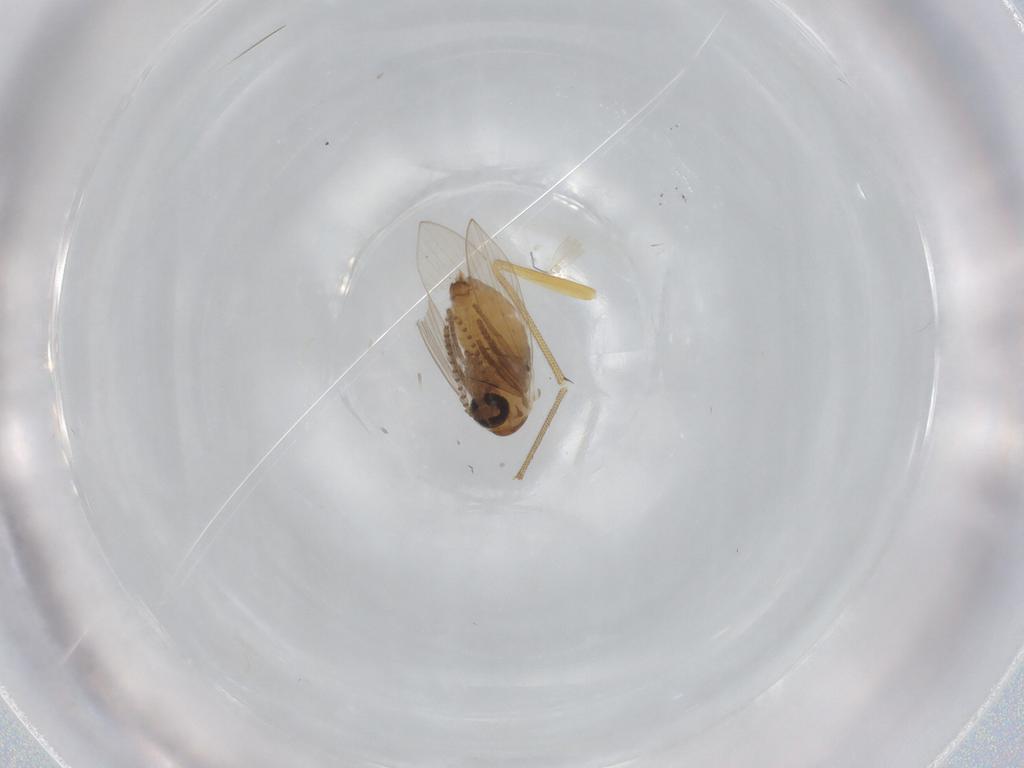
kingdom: Animalia
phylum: Arthropoda
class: Insecta
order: Diptera
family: Psychodidae
